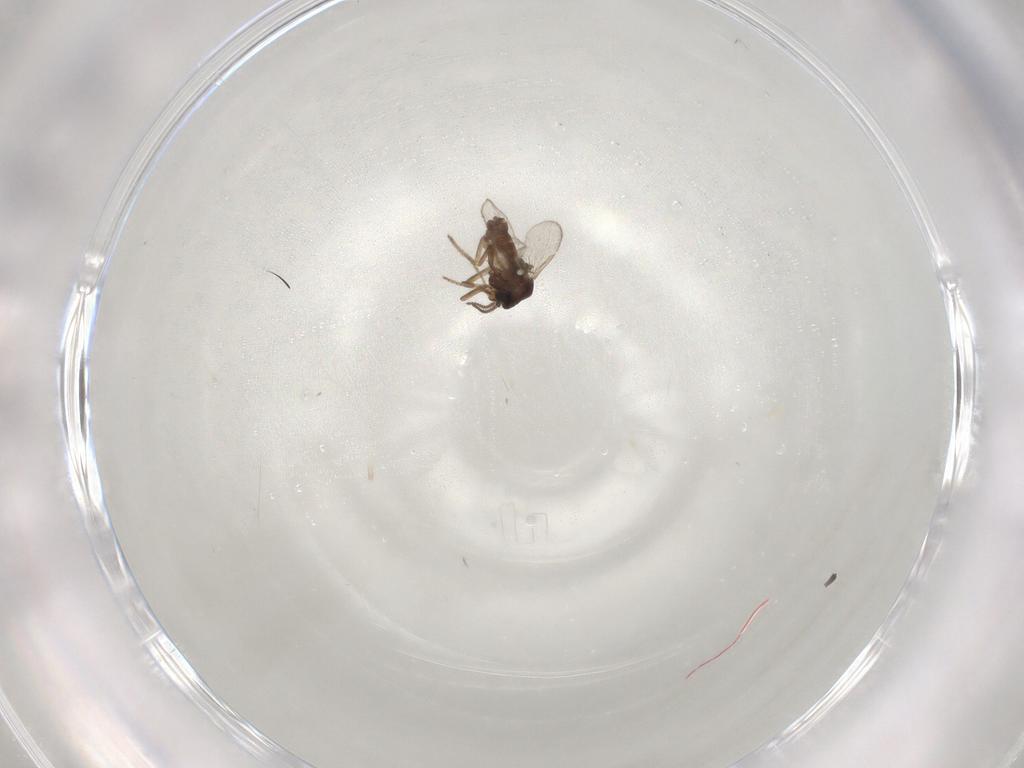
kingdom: Animalia
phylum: Arthropoda
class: Insecta
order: Diptera
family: Ceratopogonidae
